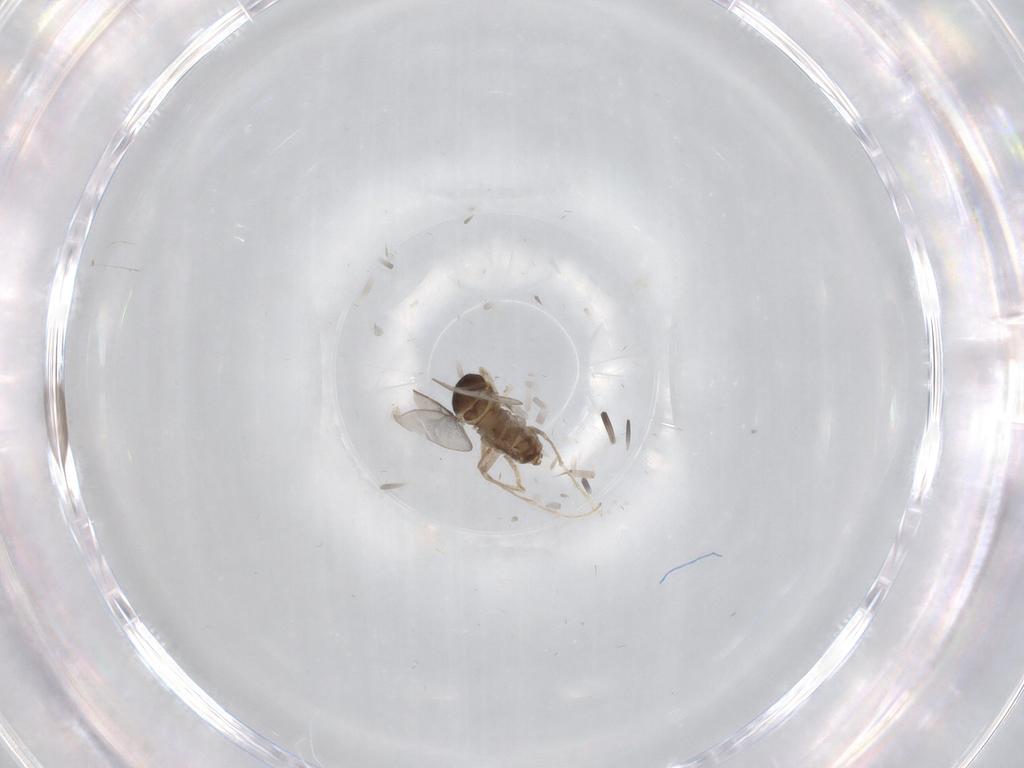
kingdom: Animalia
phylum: Arthropoda
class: Insecta
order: Diptera
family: Cecidomyiidae
